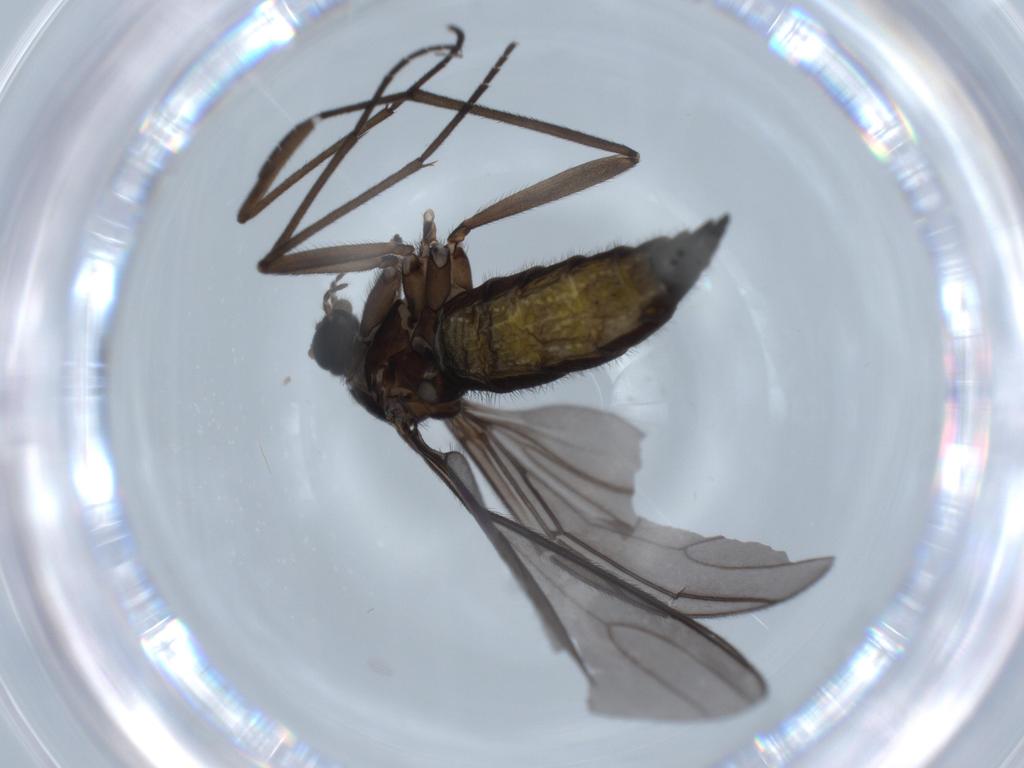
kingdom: Animalia
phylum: Arthropoda
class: Insecta
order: Diptera
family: Sciaridae
